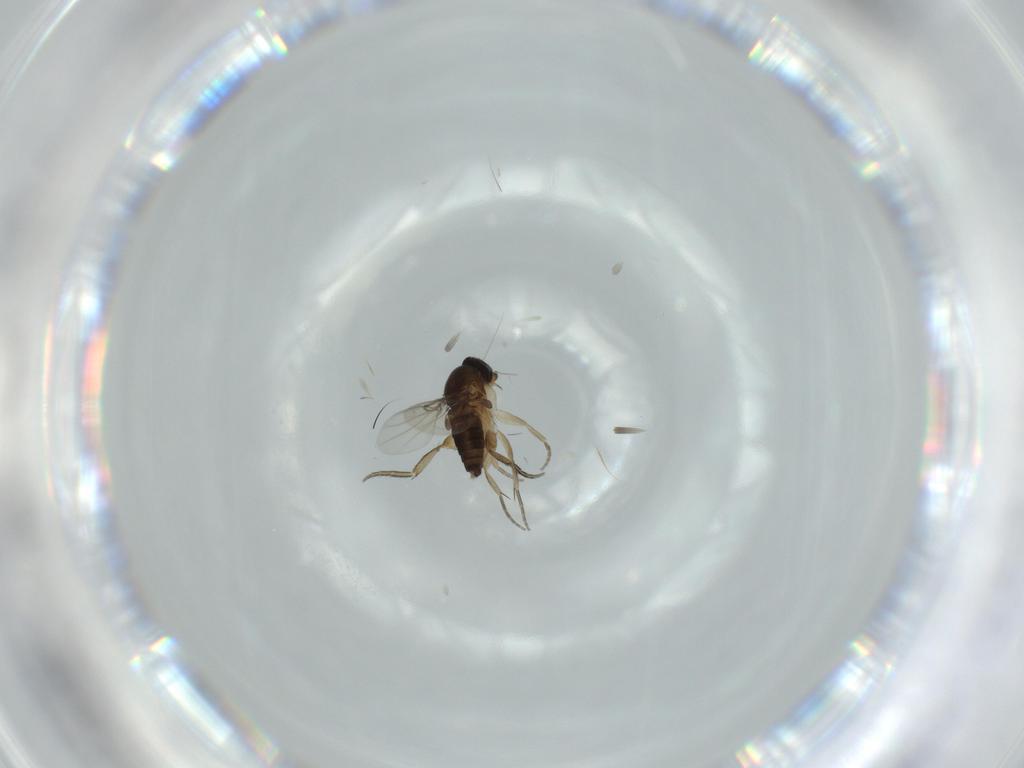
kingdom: Animalia
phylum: Arthropoda
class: Insecta
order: Diptera
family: Phoridae
